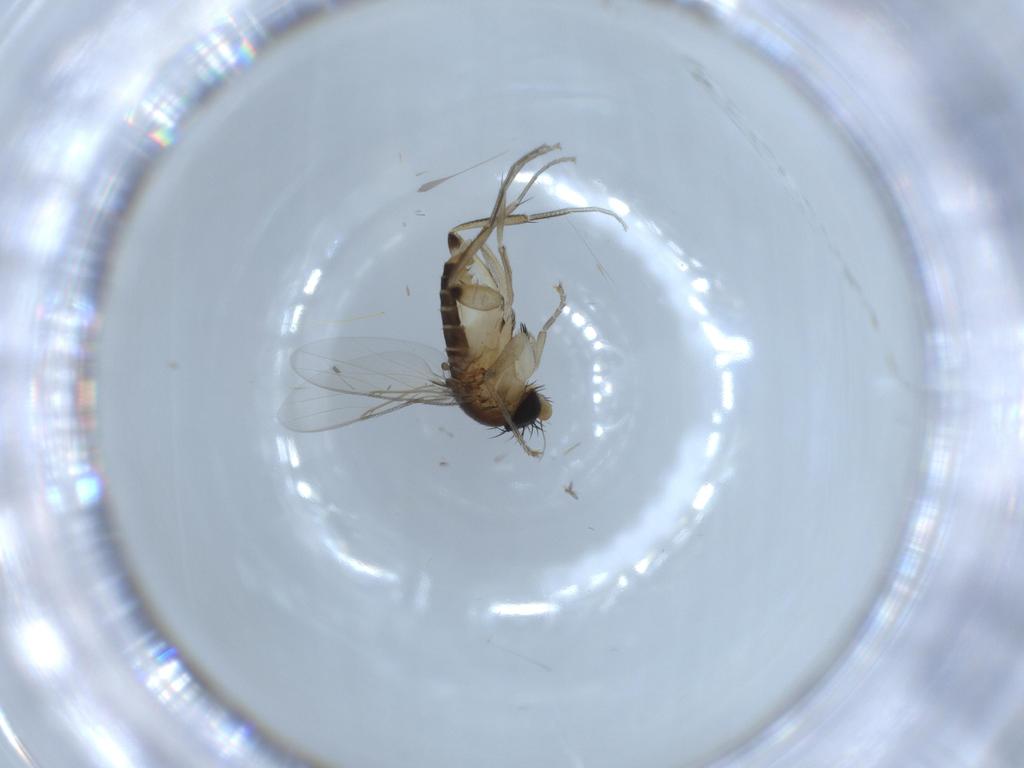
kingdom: Animalia
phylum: Arthropoda
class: Insecta
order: Diptera
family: Phoridae
